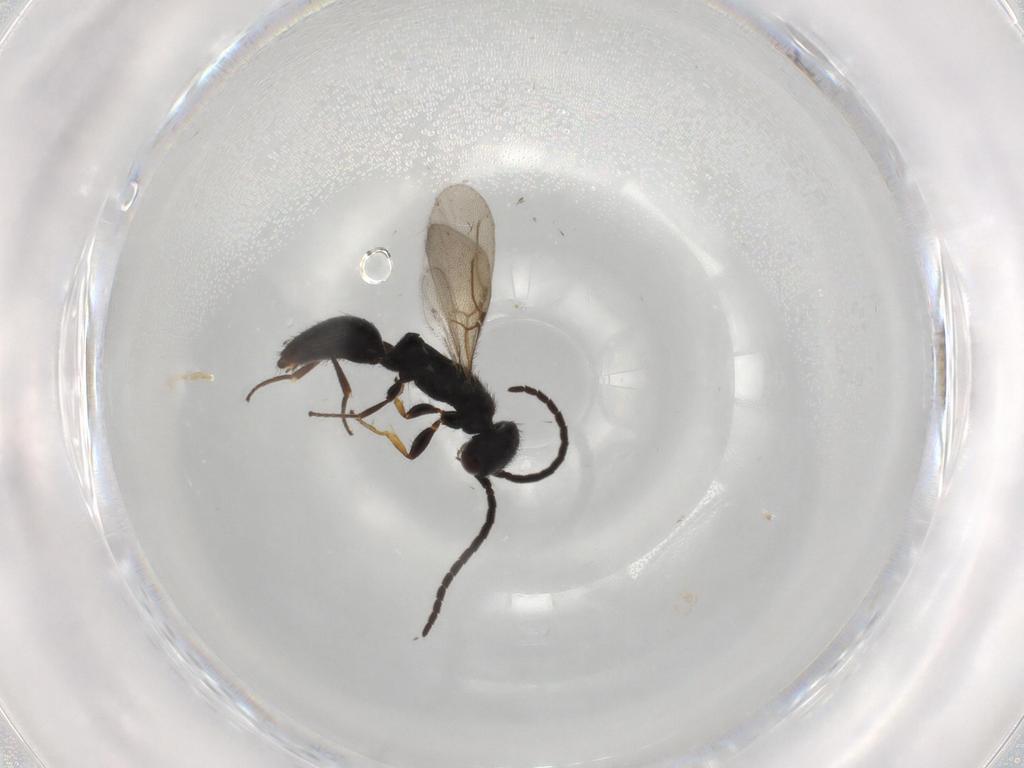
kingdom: Animalia
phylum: Arthropoda
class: Insecta
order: Hymenoptera
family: Bethylidae
